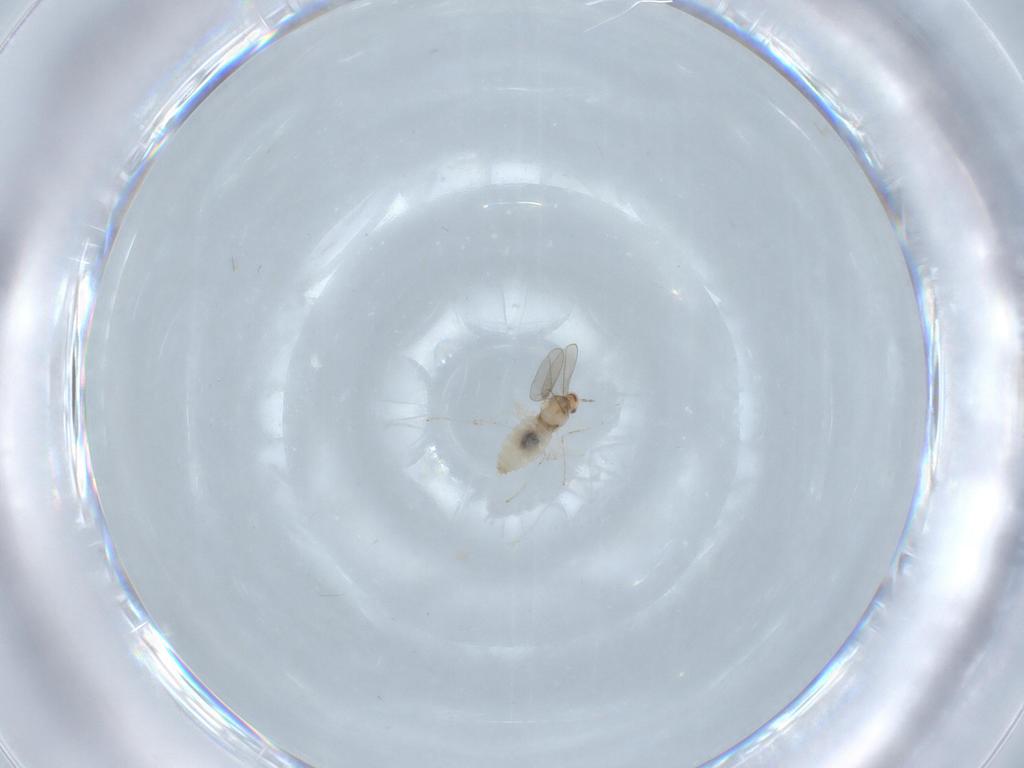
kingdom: Animalia
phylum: Arthropoda
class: Insecta
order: Diptera
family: Cecidomyiidae
